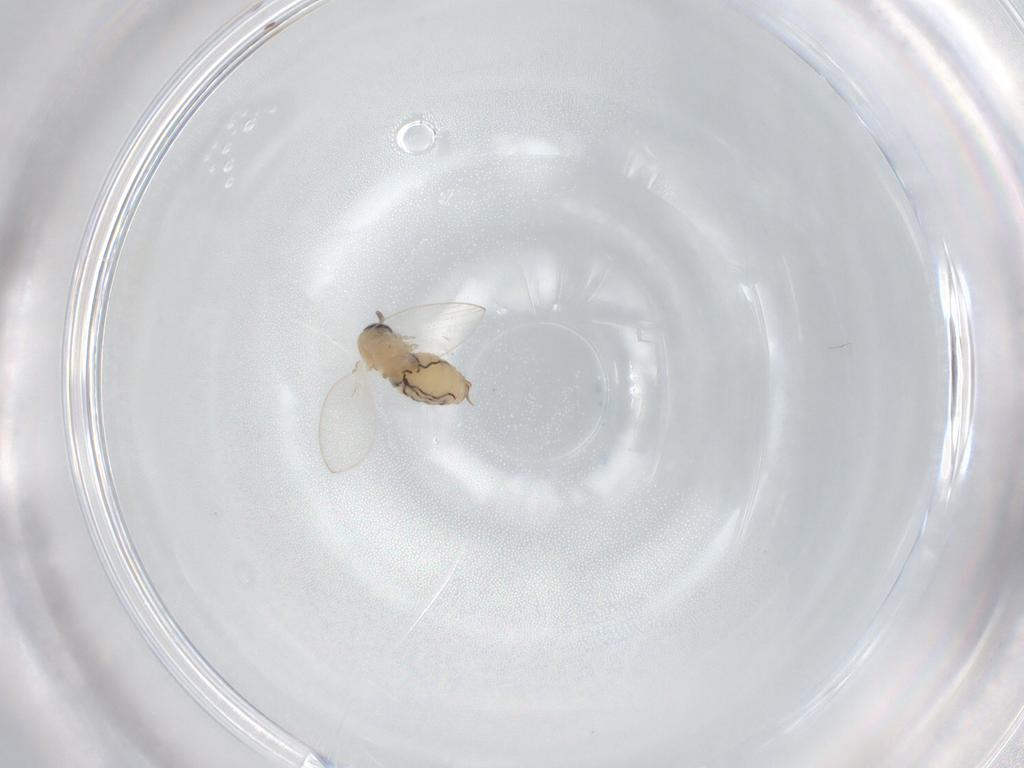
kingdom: Animalia
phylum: Arthropoda
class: Insecta
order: Diptera
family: Psychodidae
